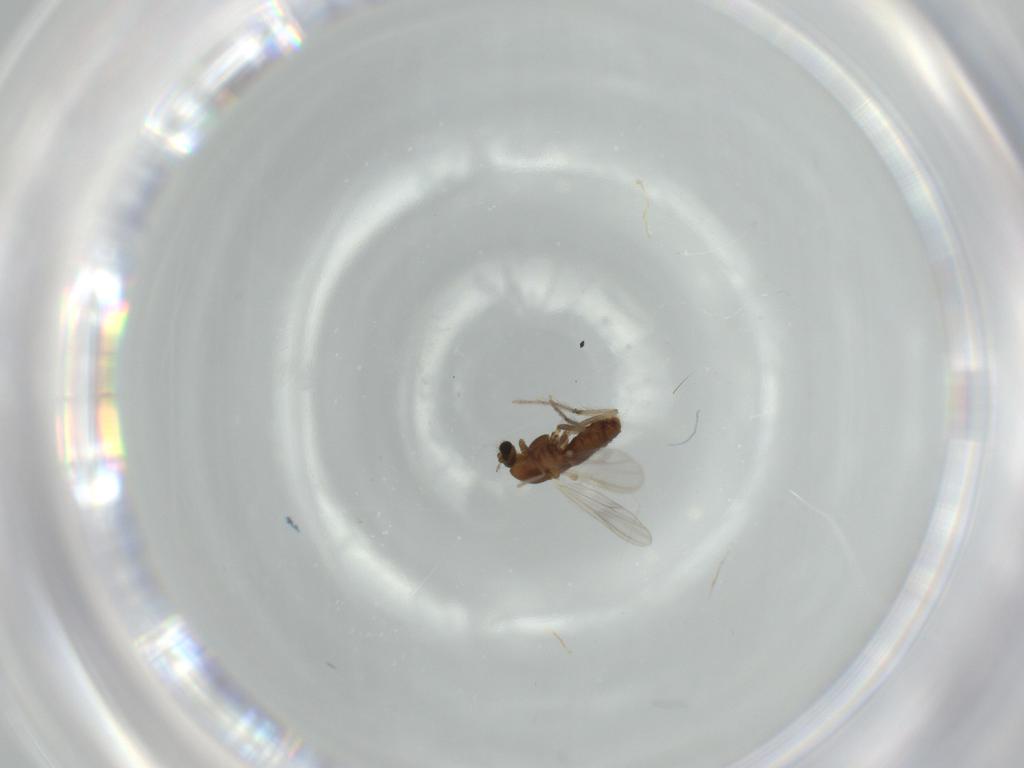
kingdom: Animalia
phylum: Arthropoda
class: Insecta
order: Diptera
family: Chironomidae
